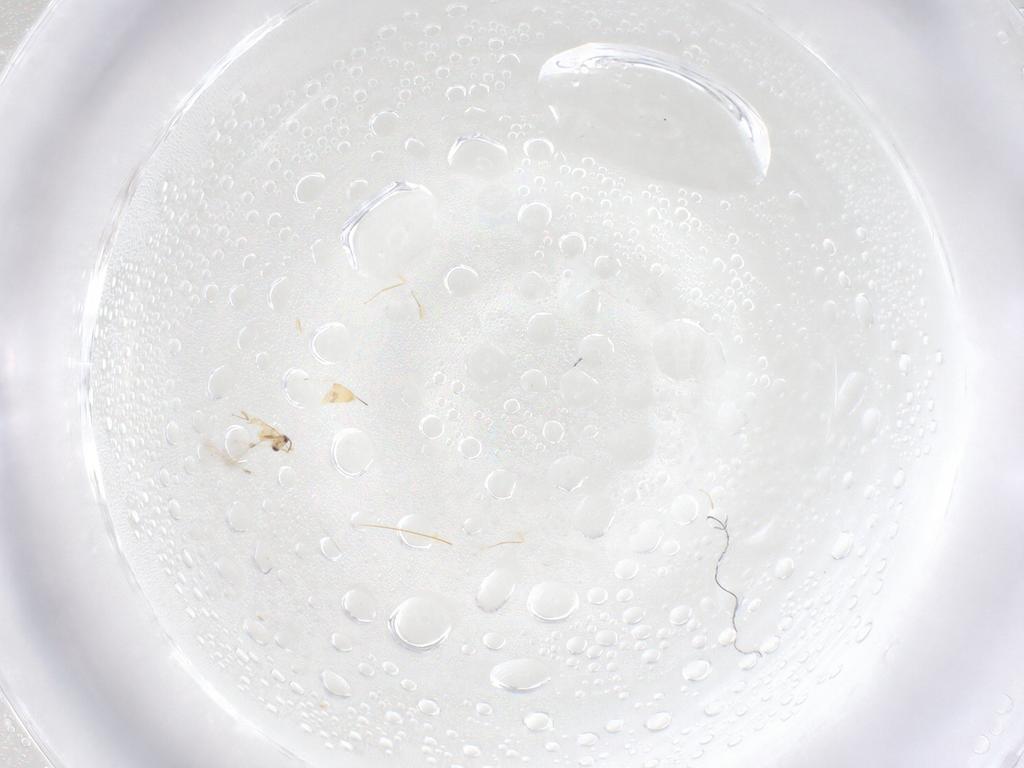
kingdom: Animalia
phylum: Arthropoda
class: Insecta
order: Hymenoptera
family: Mymaridae
